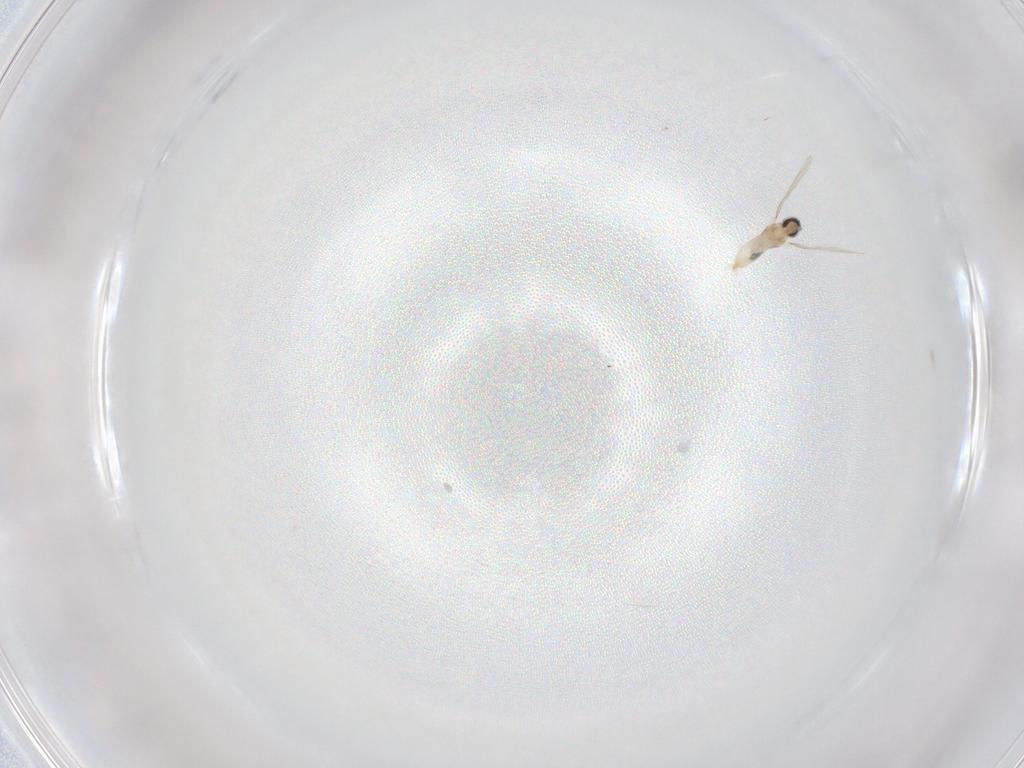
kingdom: Animalia
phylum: Arthropoda
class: Insecta
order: Diptera
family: Cecidomyiidae
